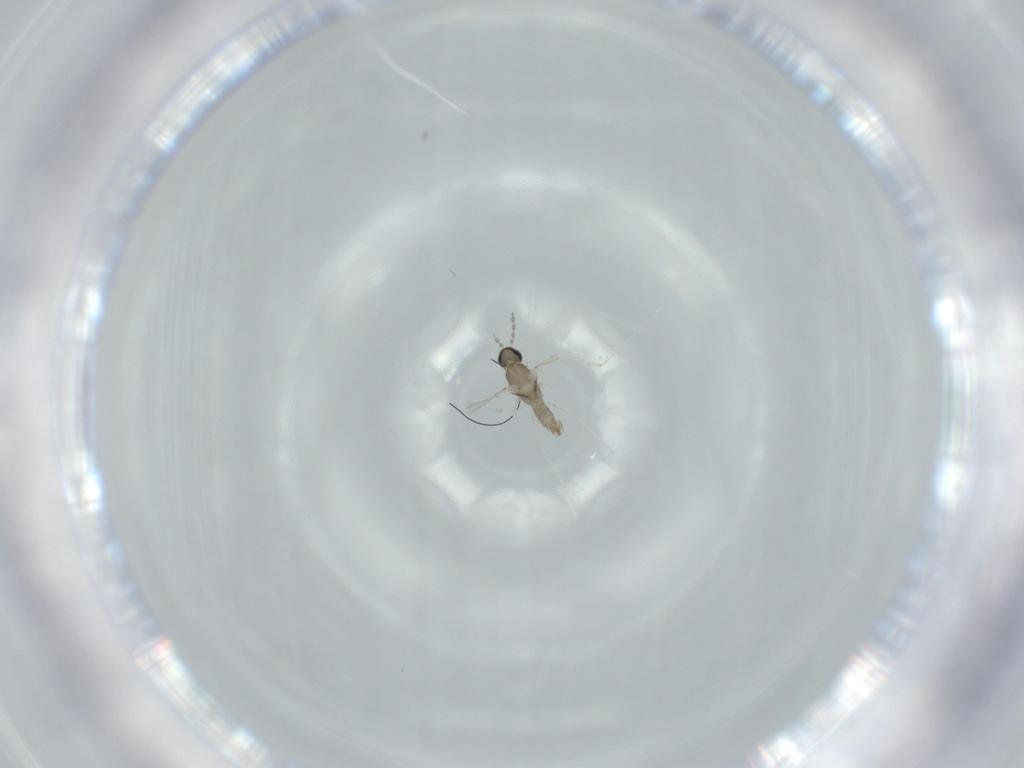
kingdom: Animalia
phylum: Arthropoda
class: Insecta
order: Diptera
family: Cecidomyiidae
